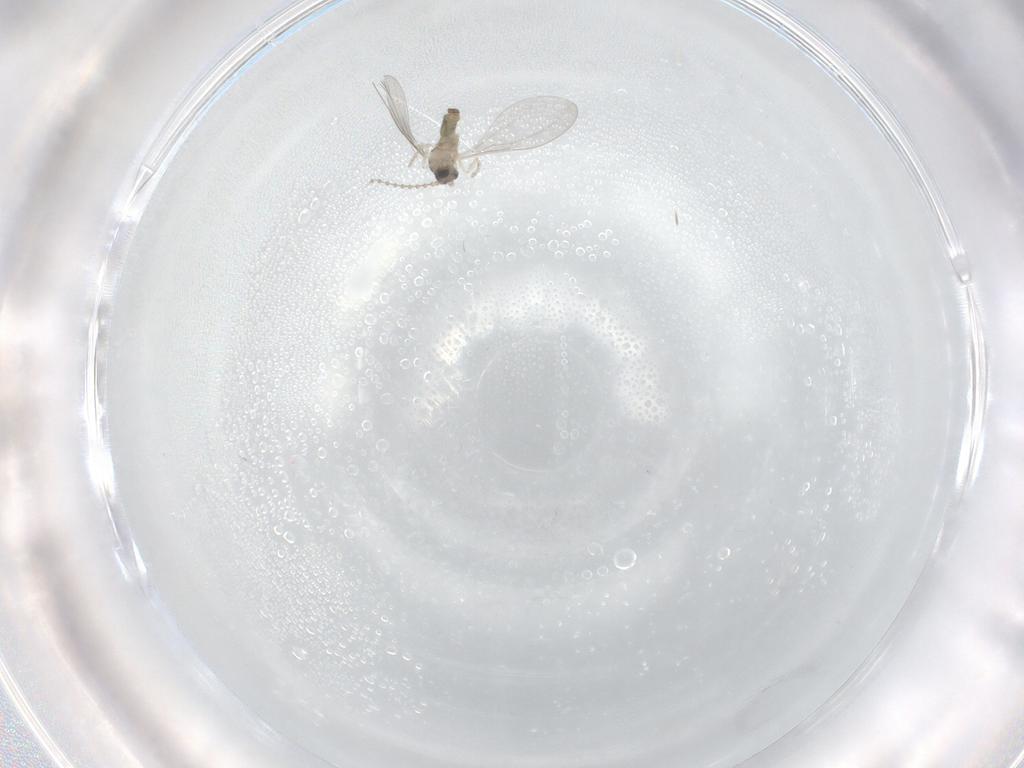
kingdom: Animalia
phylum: Arthropoda
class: Insecta
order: Diptera
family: Cecidomyiidae
